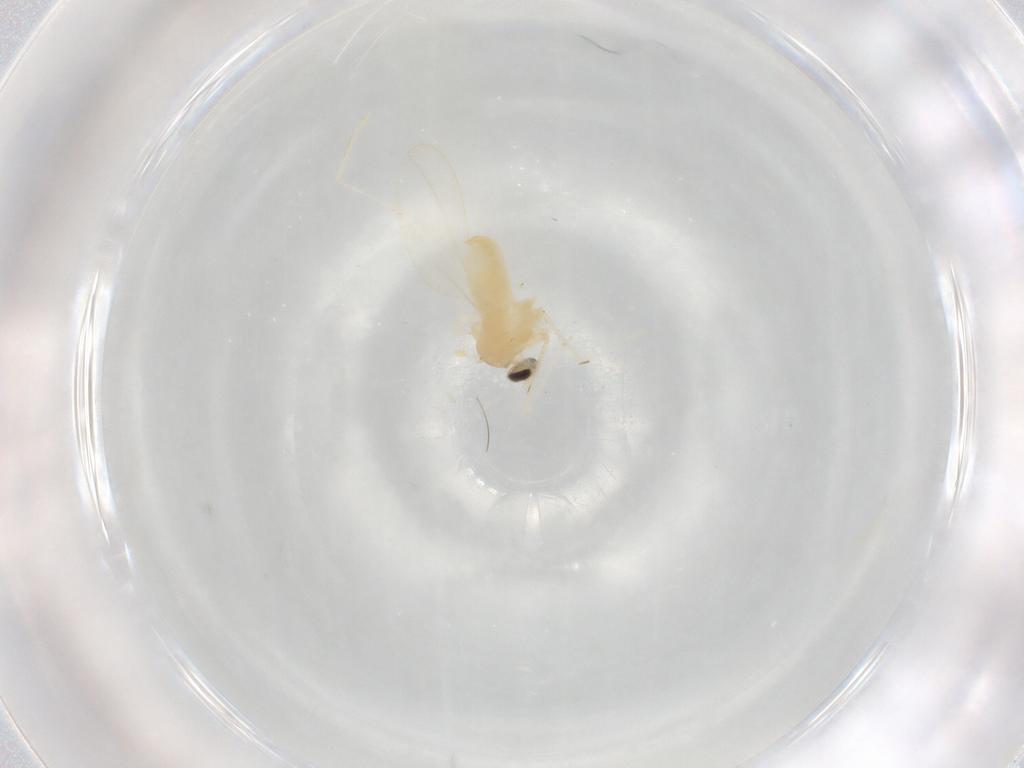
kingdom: Animalia
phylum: Arthropoda
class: Insecta
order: Diptera
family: Cecidomyiidae
